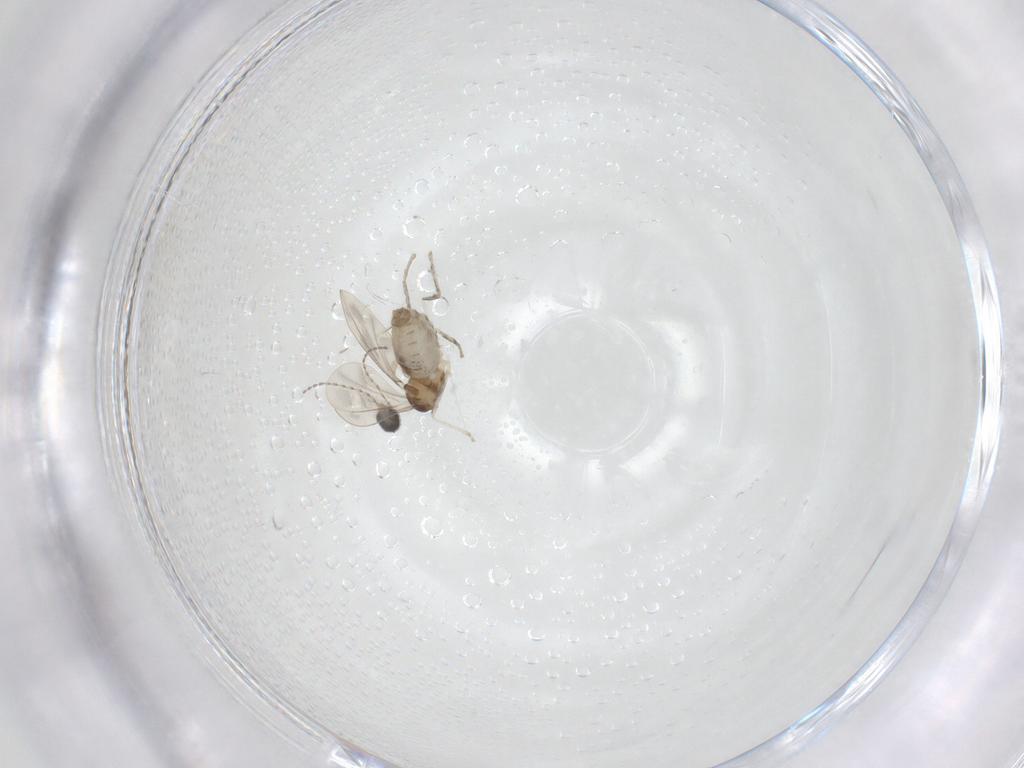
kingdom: Animalia
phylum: Arthropoda
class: Insecta
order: Diptera
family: Cecidomyiidae
